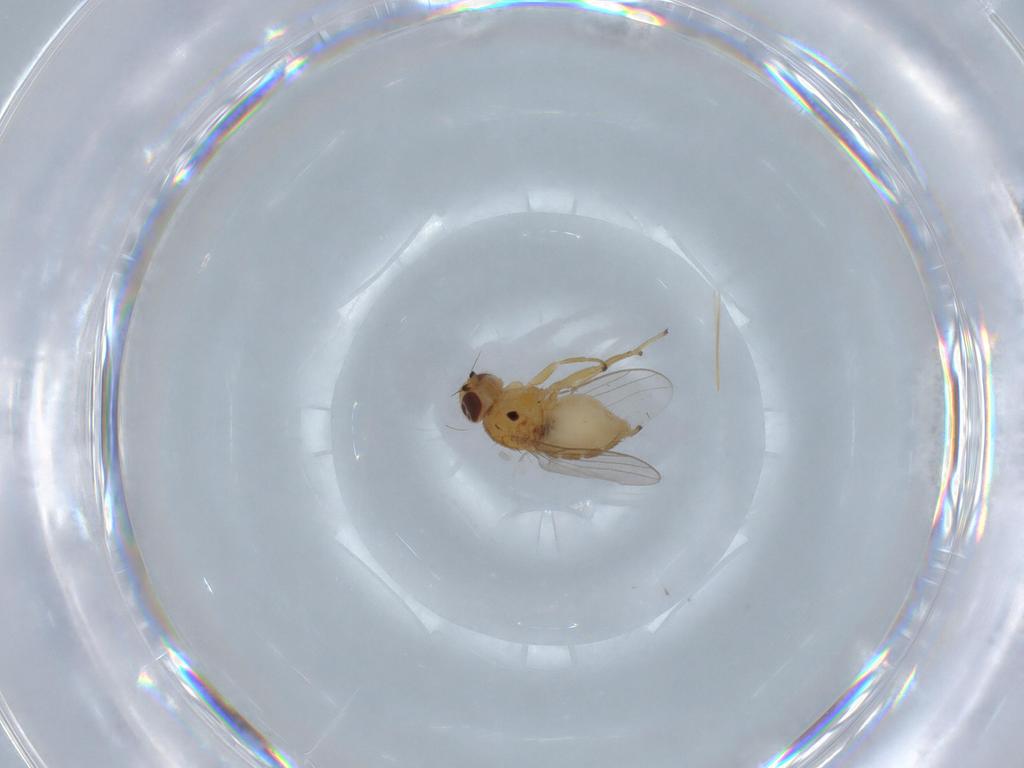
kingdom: Animalia
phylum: Arthropoda
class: Insecta
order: Diptera
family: Chloropidae
